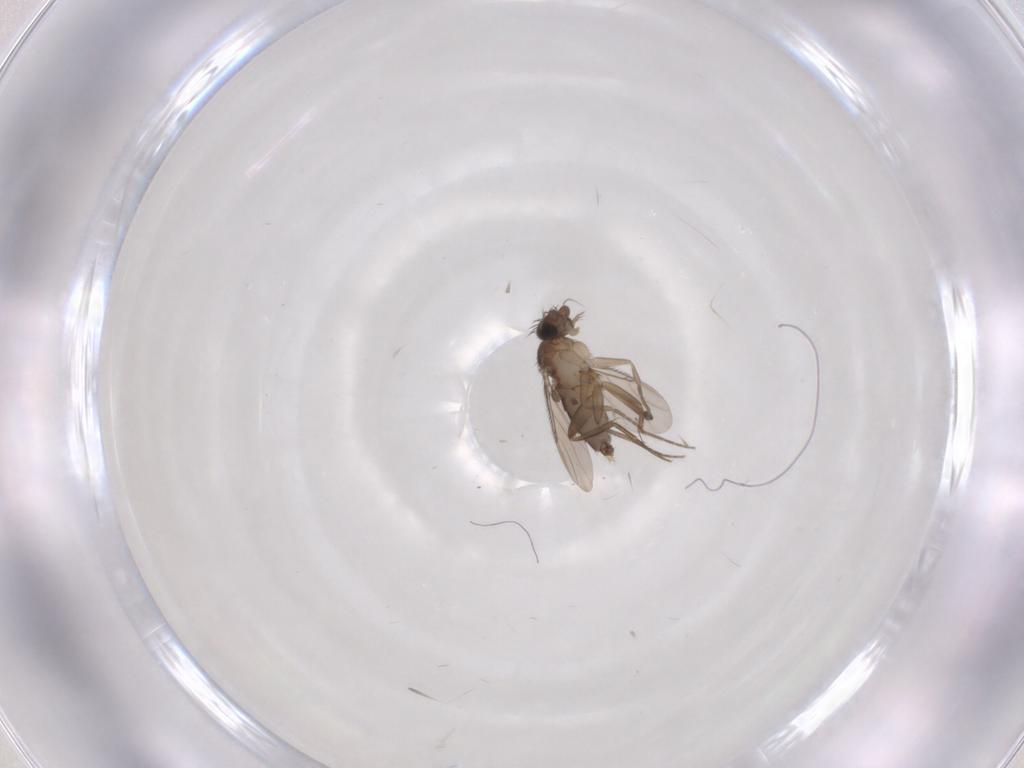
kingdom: Animalia
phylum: Arthropoda
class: Insecta
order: Diptera
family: Phoridae
